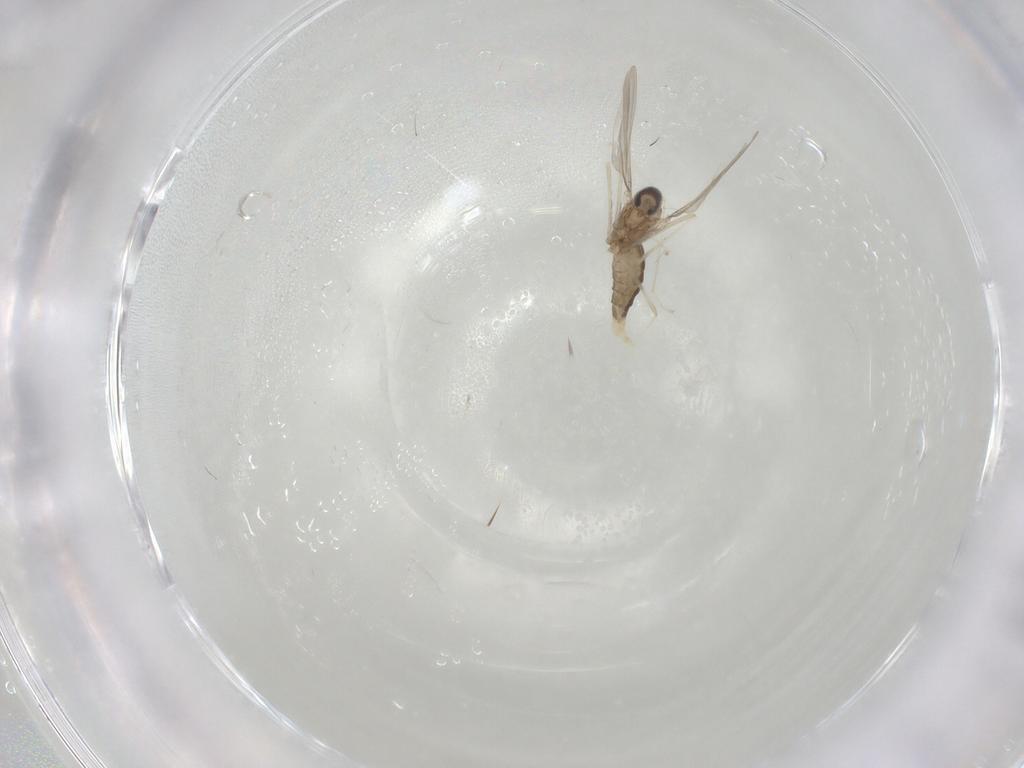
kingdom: Animalia
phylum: Arthropoda
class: Insecta
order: Diptera
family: Cecidomyiidae
